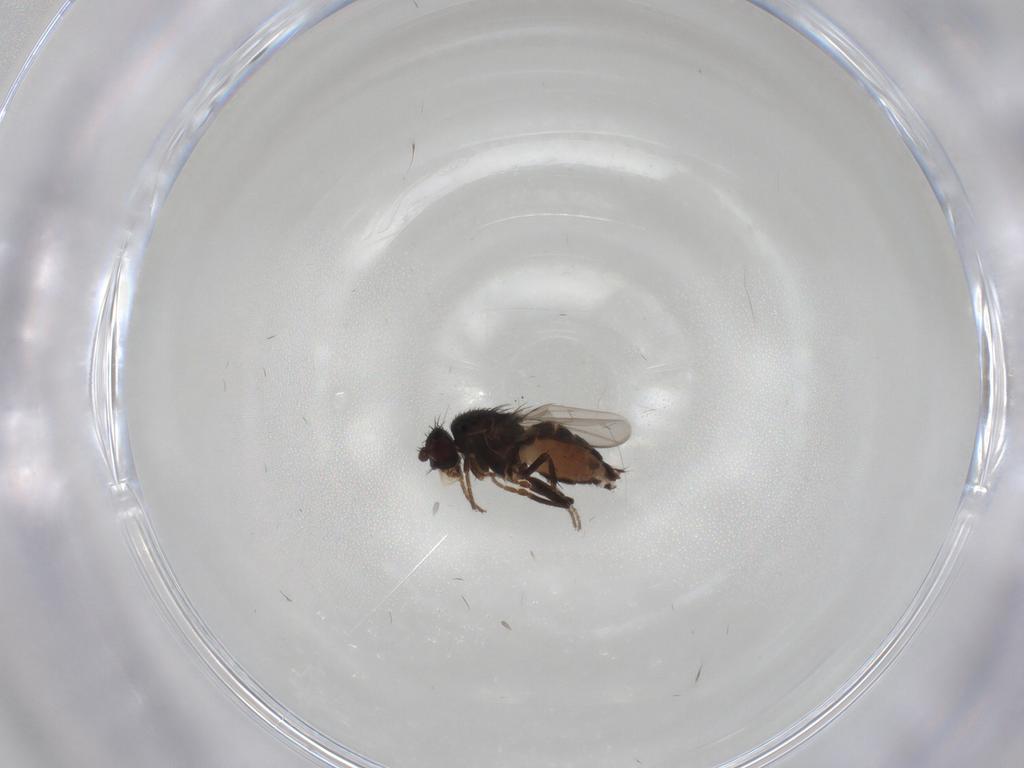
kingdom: Animalia
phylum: Arthropoda
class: Insecta
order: Diptera
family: Sphaeroceridae
